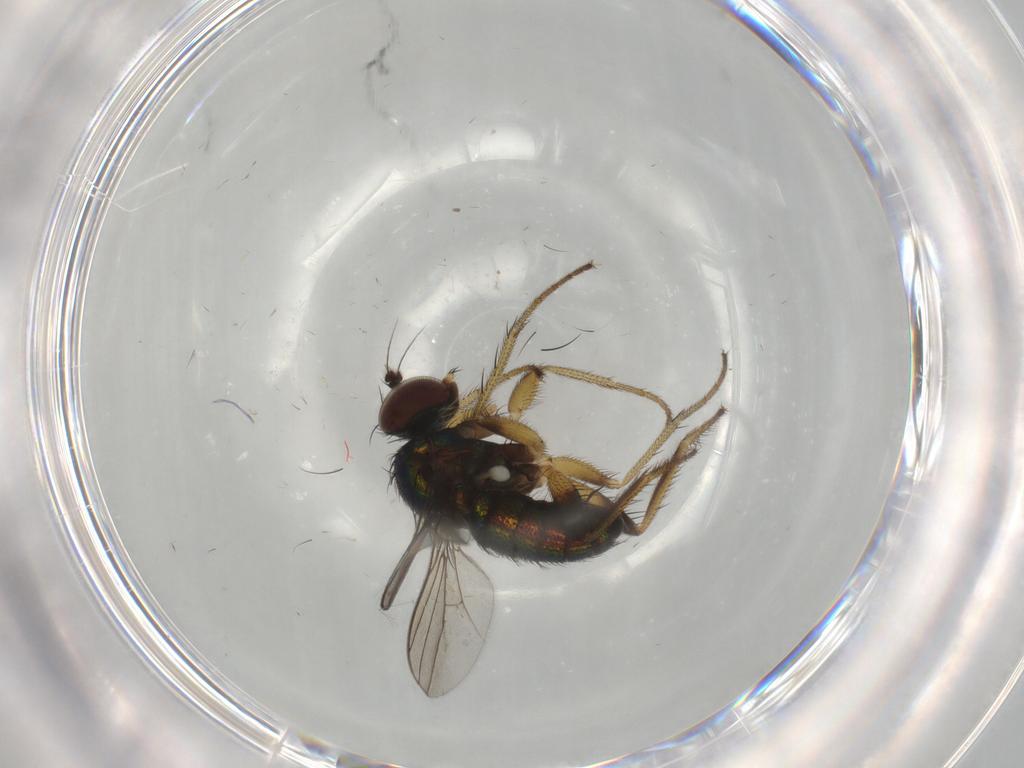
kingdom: Animalia
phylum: Arthropoda
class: Insecta
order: Diptera
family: Dolichopodidae
